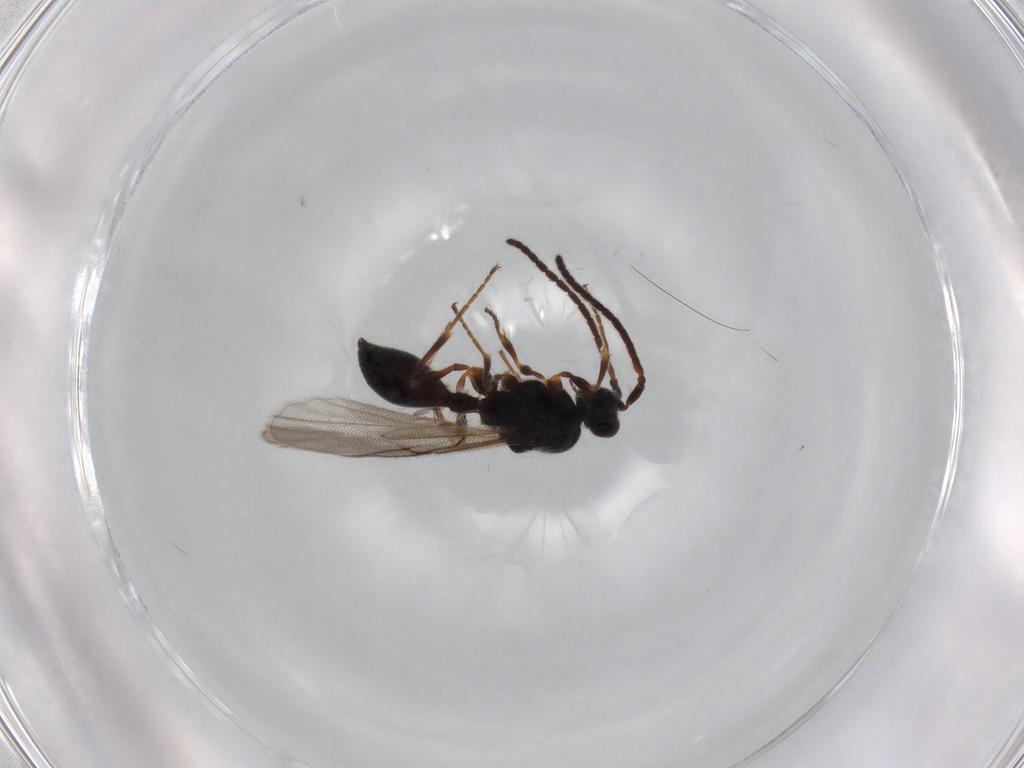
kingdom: Animalia
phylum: Arthropoda
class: Insecta
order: Hymenoptera
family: Diapriidae
